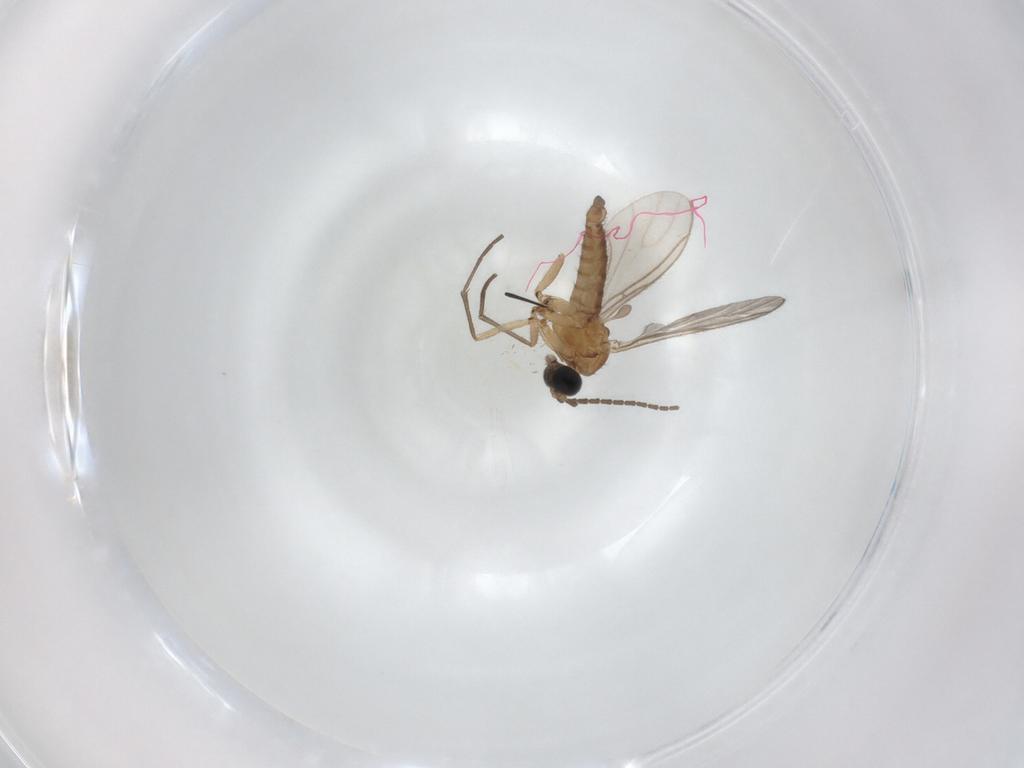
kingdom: Animalia
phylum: Arthropoda
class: Insecta
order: Diptera
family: Sciaridae
